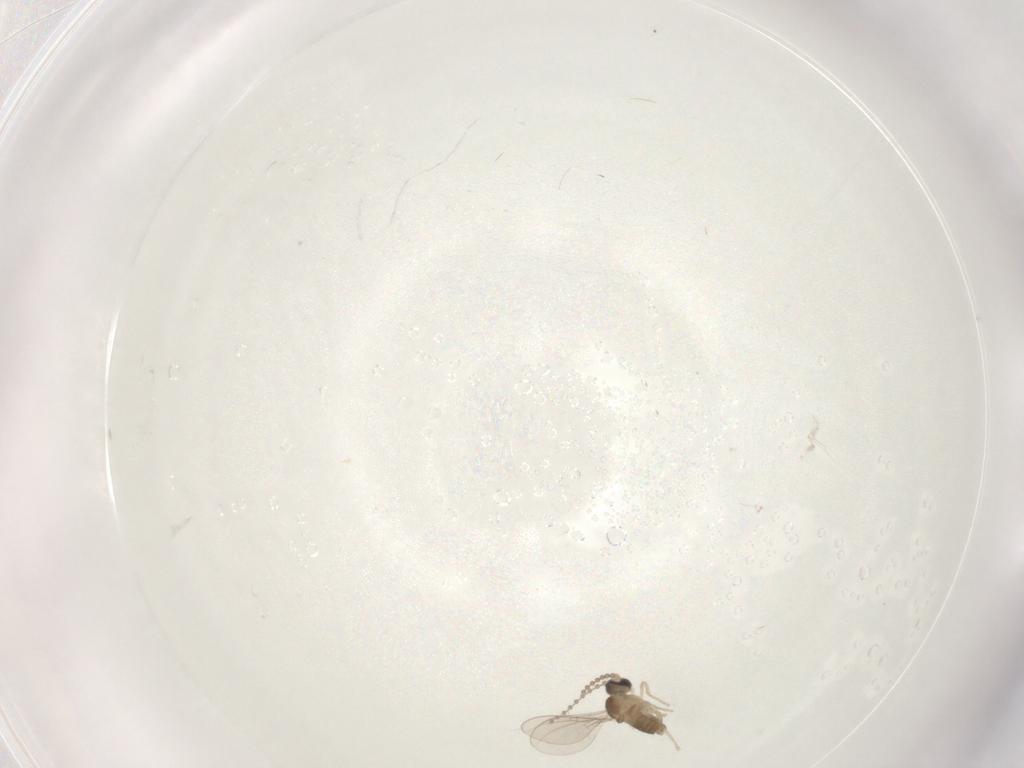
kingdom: Animalia
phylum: Arthropoda
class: Insecta
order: Diptera
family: Cecidomyiidae
